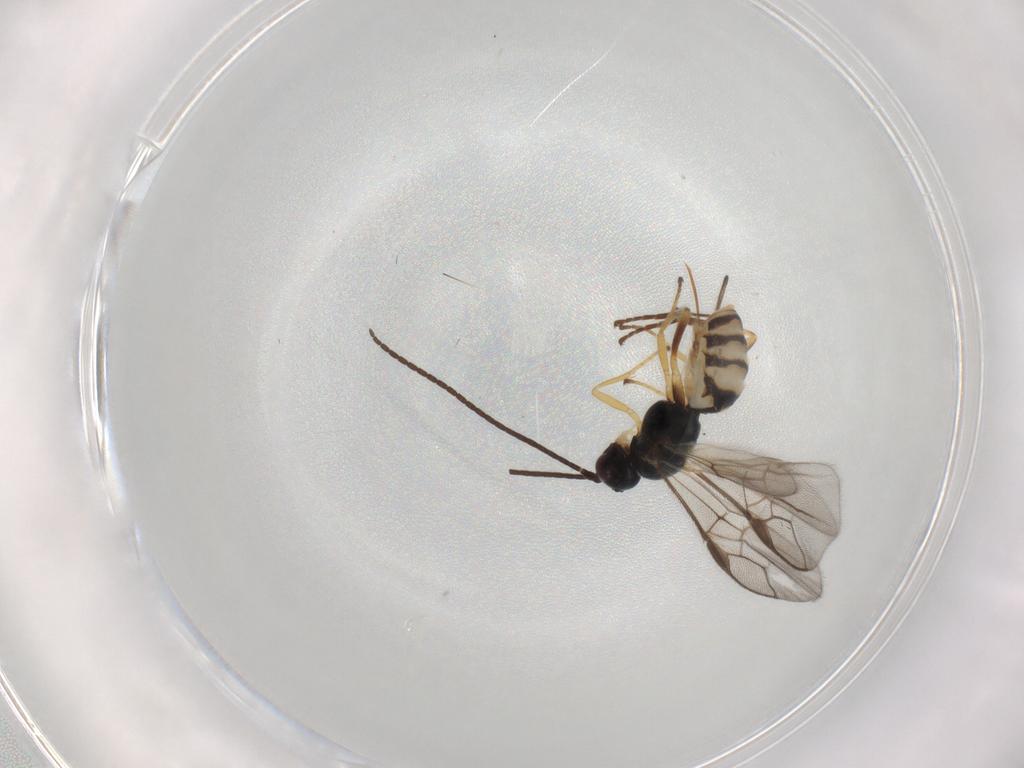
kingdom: Animalia
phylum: Arthropoda
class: Insecta
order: Hymenoptera
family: Braconidae
